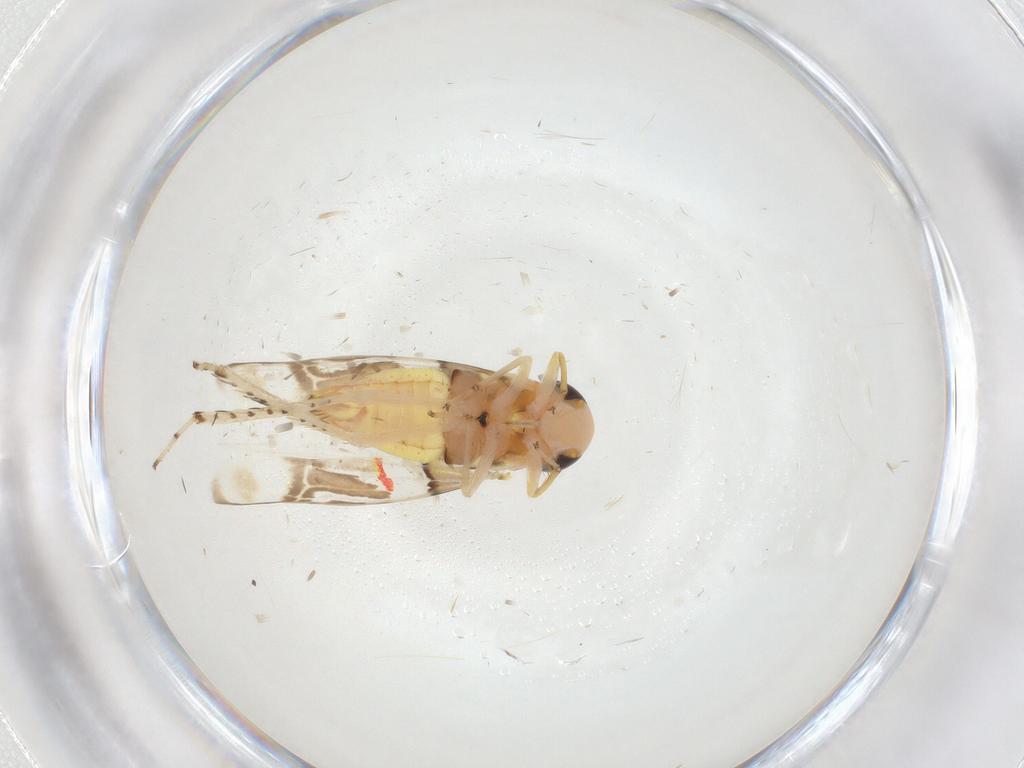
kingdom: Animalia
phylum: Arthropoda
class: Insecta
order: Hemiptera
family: Cicadellidae
